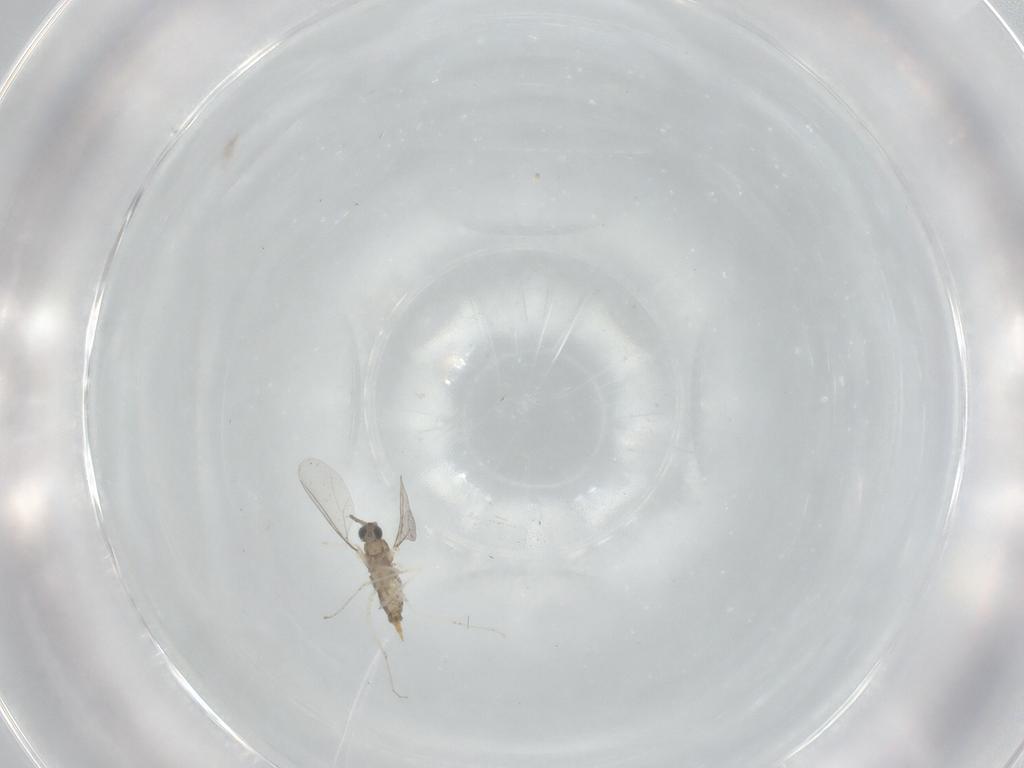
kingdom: Animalia
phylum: Arthropoda
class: Insecta
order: Diptera
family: Cecidomyiidae
